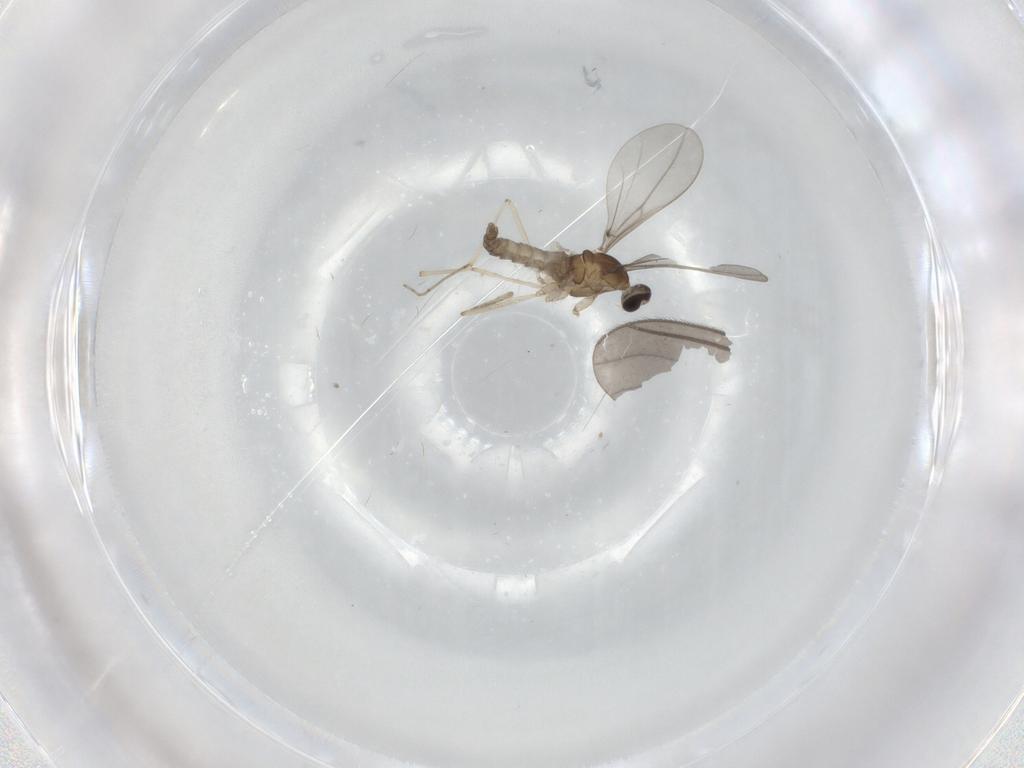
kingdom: Animalia
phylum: Arthropoda
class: Insecta
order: Diptera
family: Cecidomyiidae
